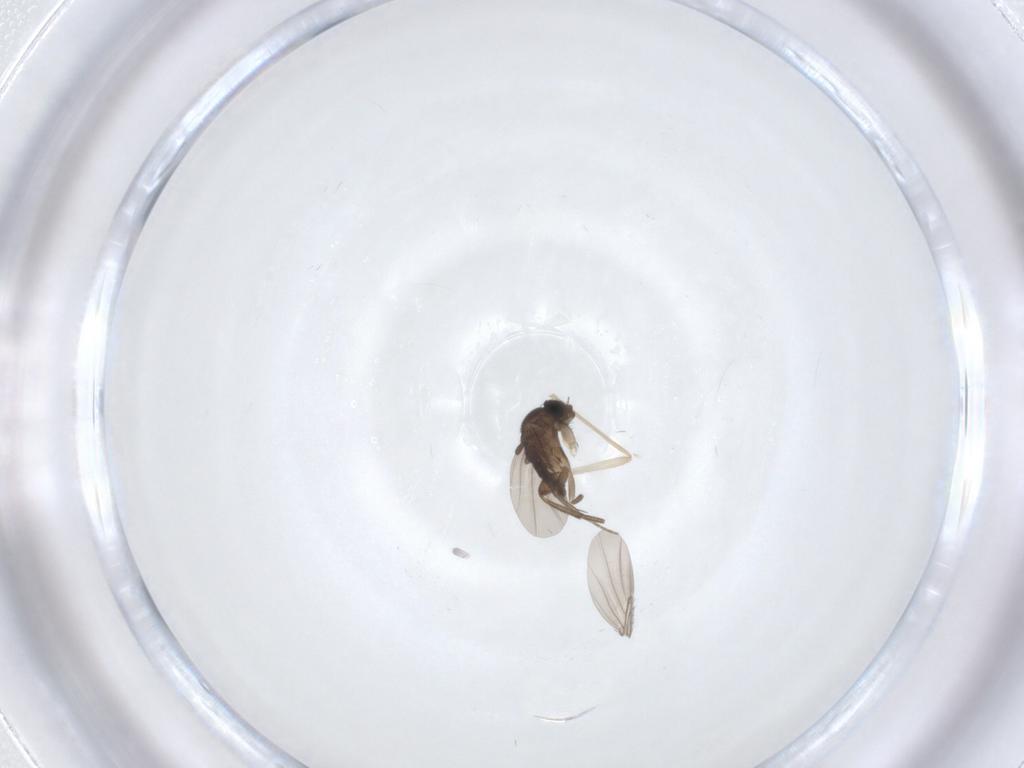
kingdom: Animalia
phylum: Arthropoda
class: Insecta
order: Diptera
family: Phoridae
